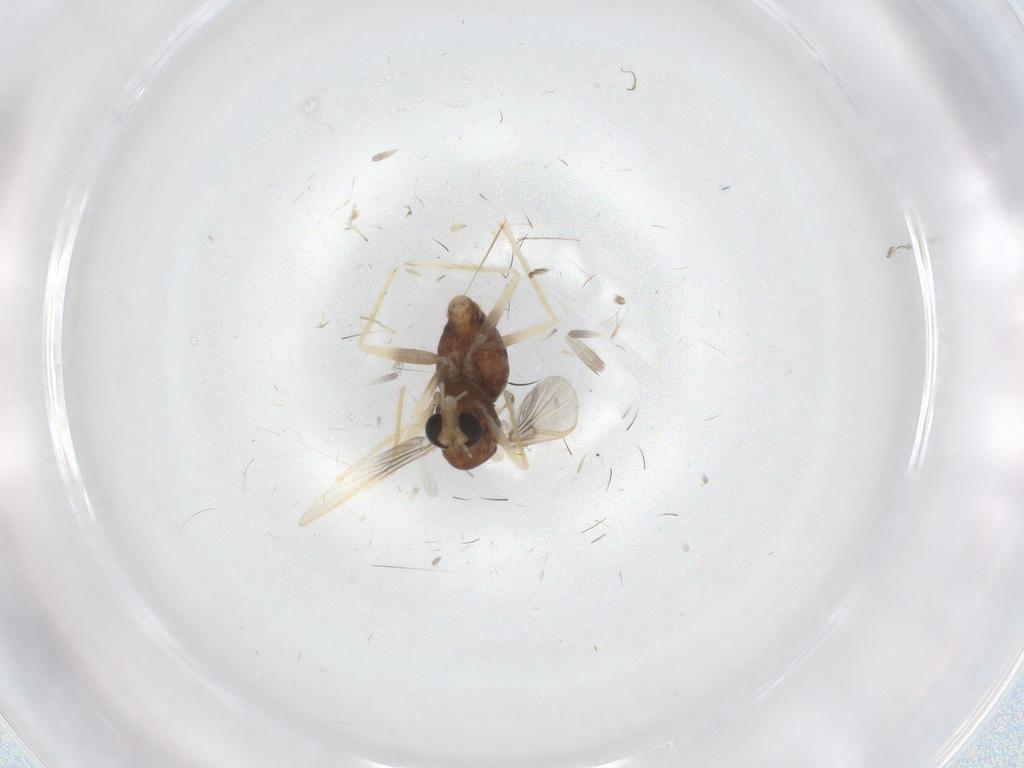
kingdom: Animalia
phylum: Arthropoda
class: Insecta
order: Diptera
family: Chironomidae
